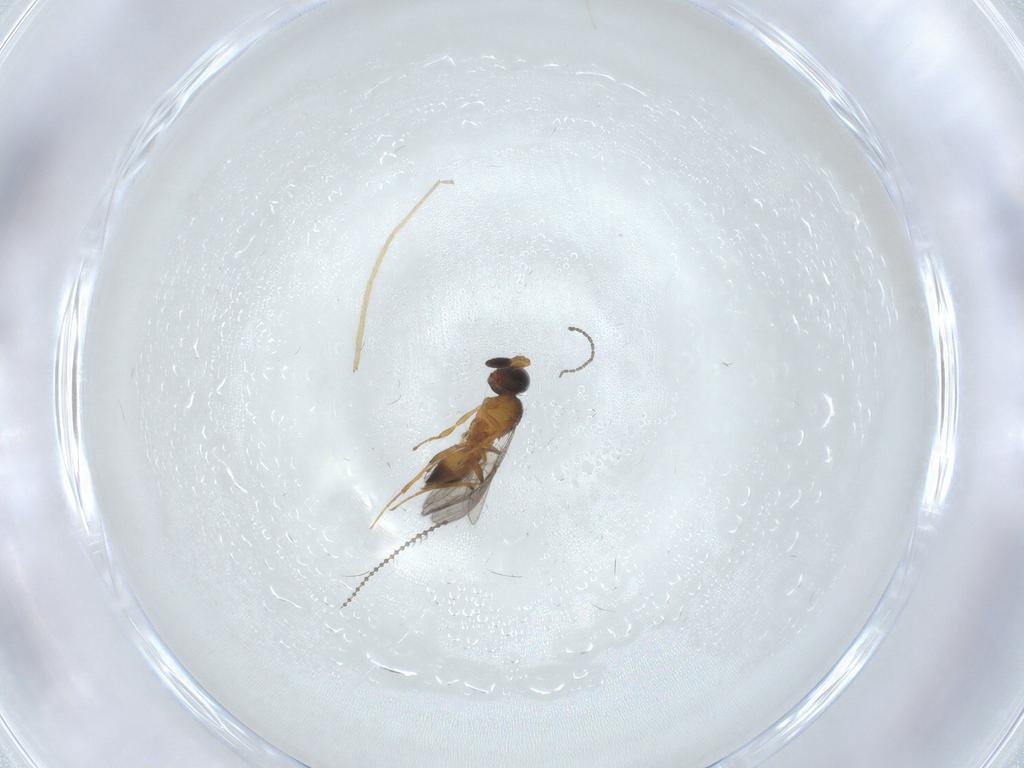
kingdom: Animalia
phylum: Arthropoda
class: Insecta
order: Hymenoptera
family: Scelionidae
